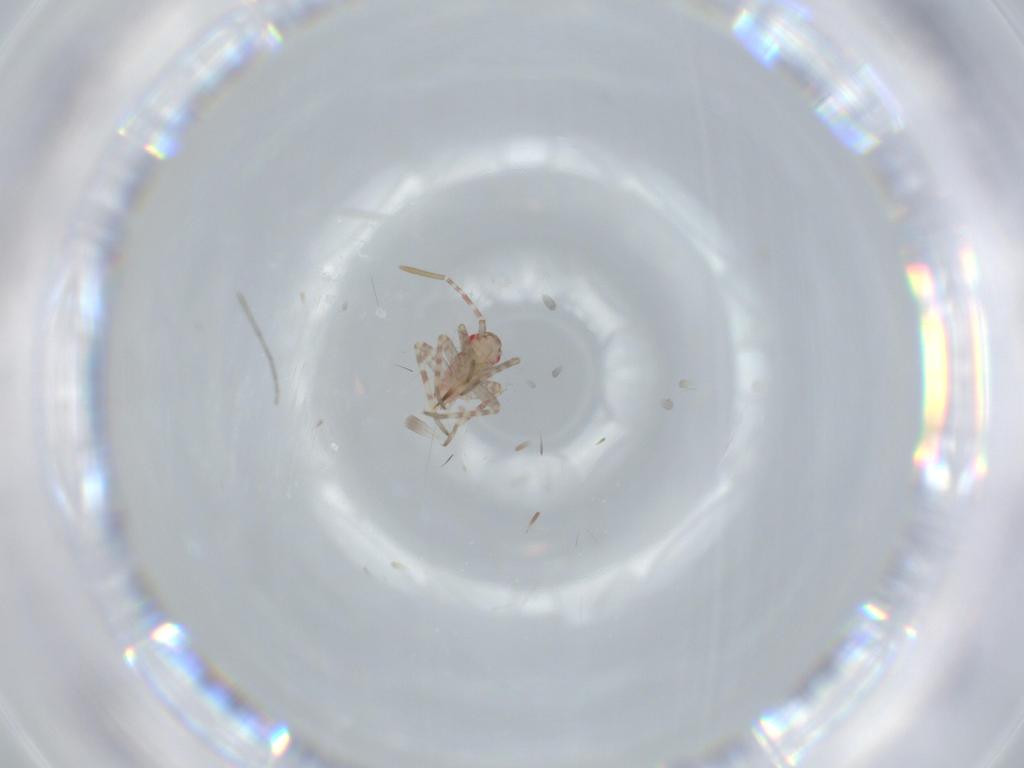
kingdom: Animalia
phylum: Arthropoda
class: Insecta
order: Hemiptera
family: Miridae
